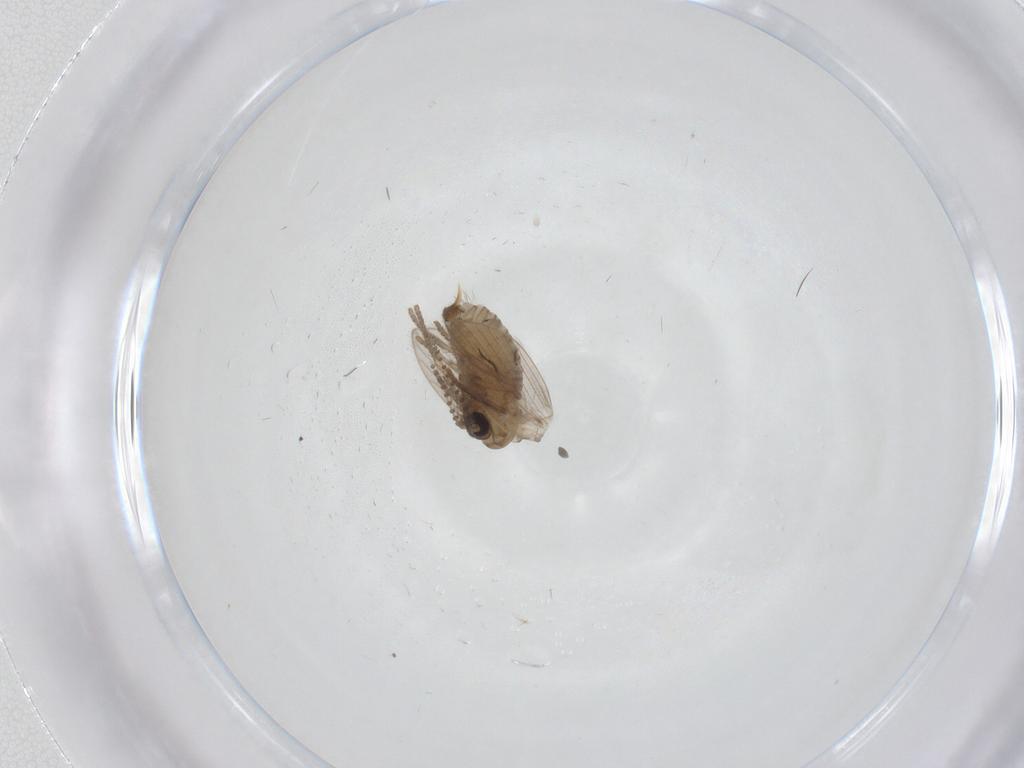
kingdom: Animalia
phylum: Arthropoda
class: Insecta
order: Diptera
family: Psychodidae
